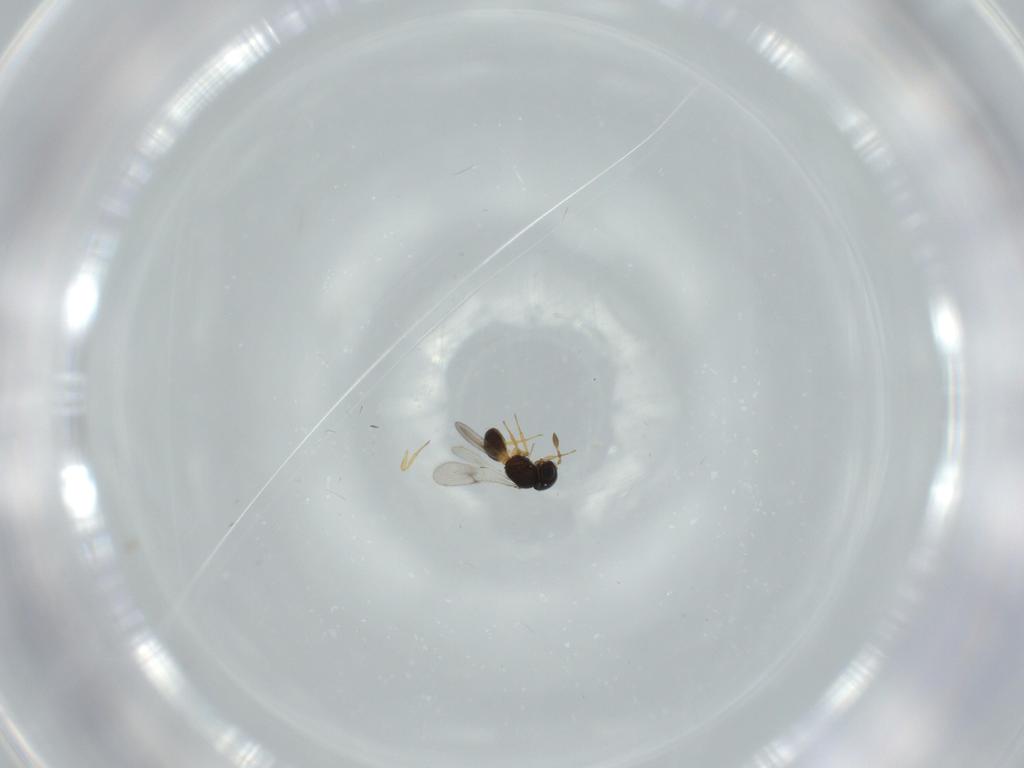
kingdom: Animalia
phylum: Arthropoda
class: Insecta
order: Hymenoptera
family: Scelionidae
